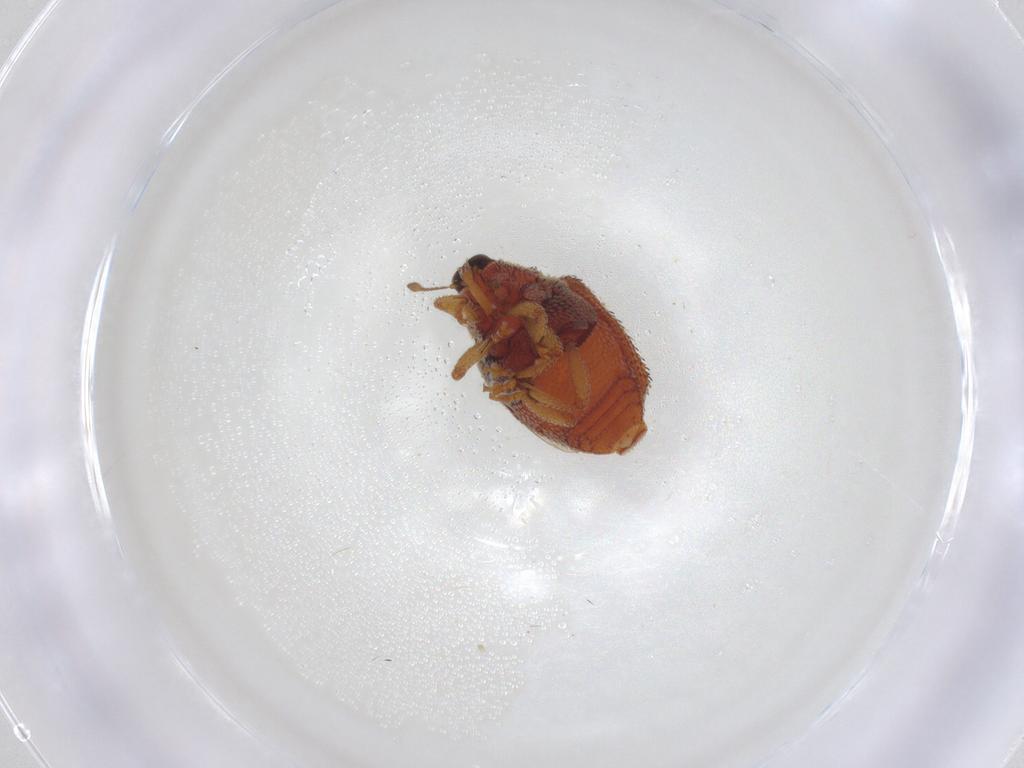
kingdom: Animalia
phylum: Arthropoda
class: Insecta
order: Coleoptera
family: Curculionidae
